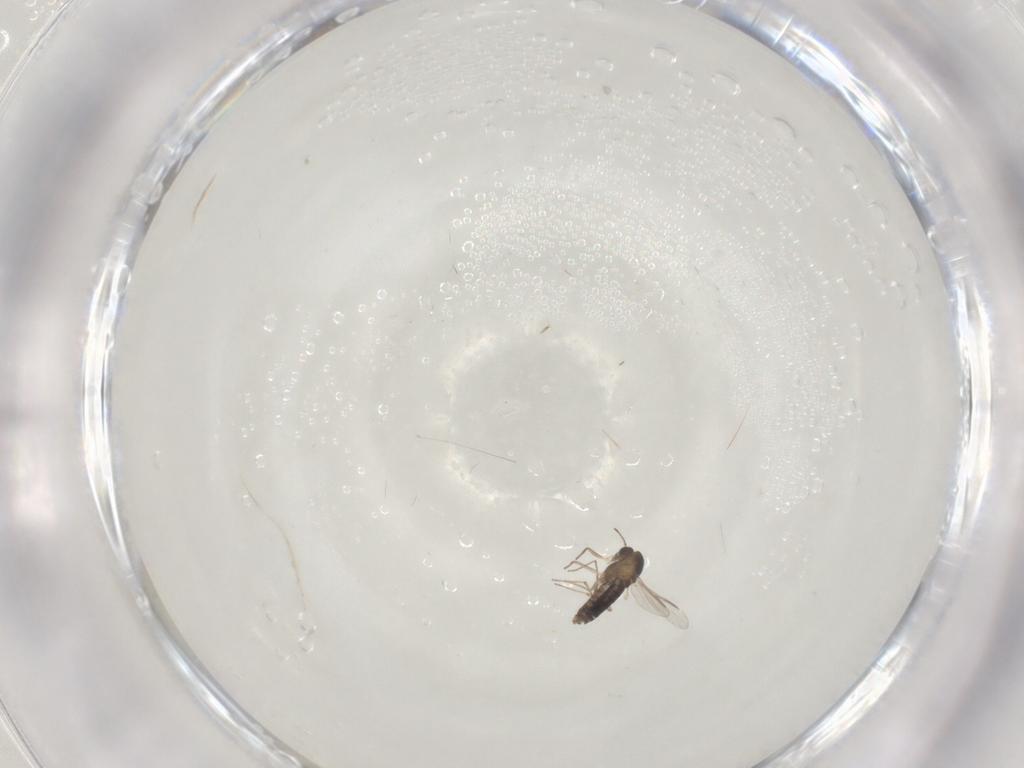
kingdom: Animalia
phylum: Arthropoda
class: Insecta
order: Diptera
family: Chironomidae
